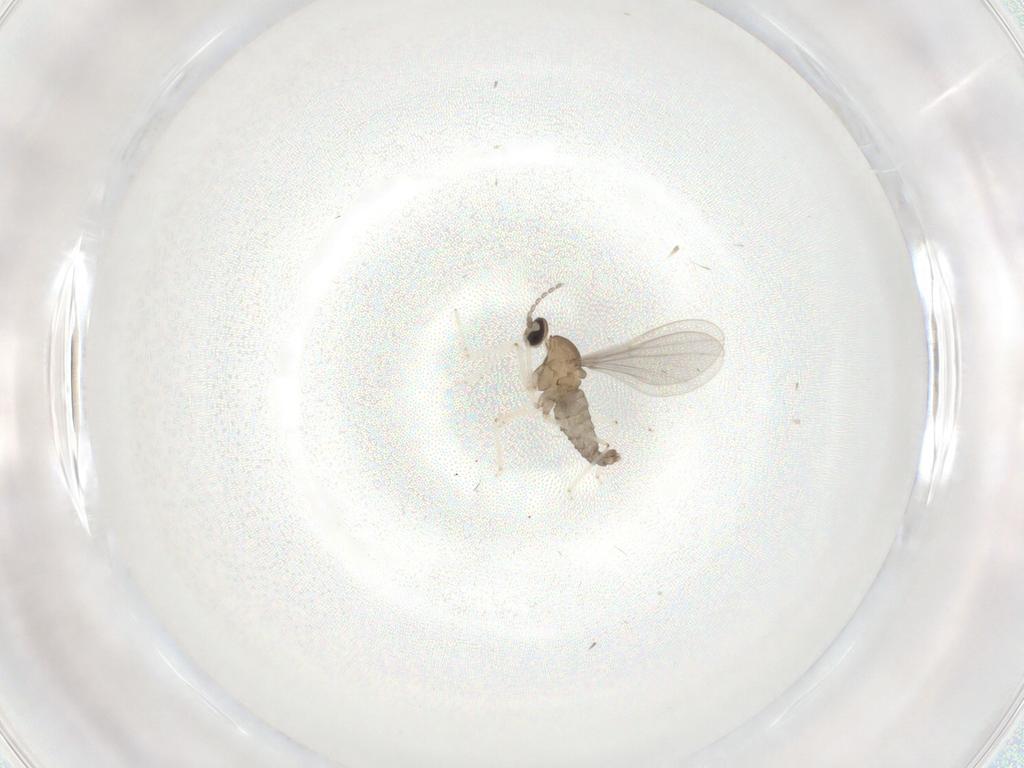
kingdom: Animalia
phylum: Arthropoda
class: Insecta
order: Diptera
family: Cecidomyiidae
